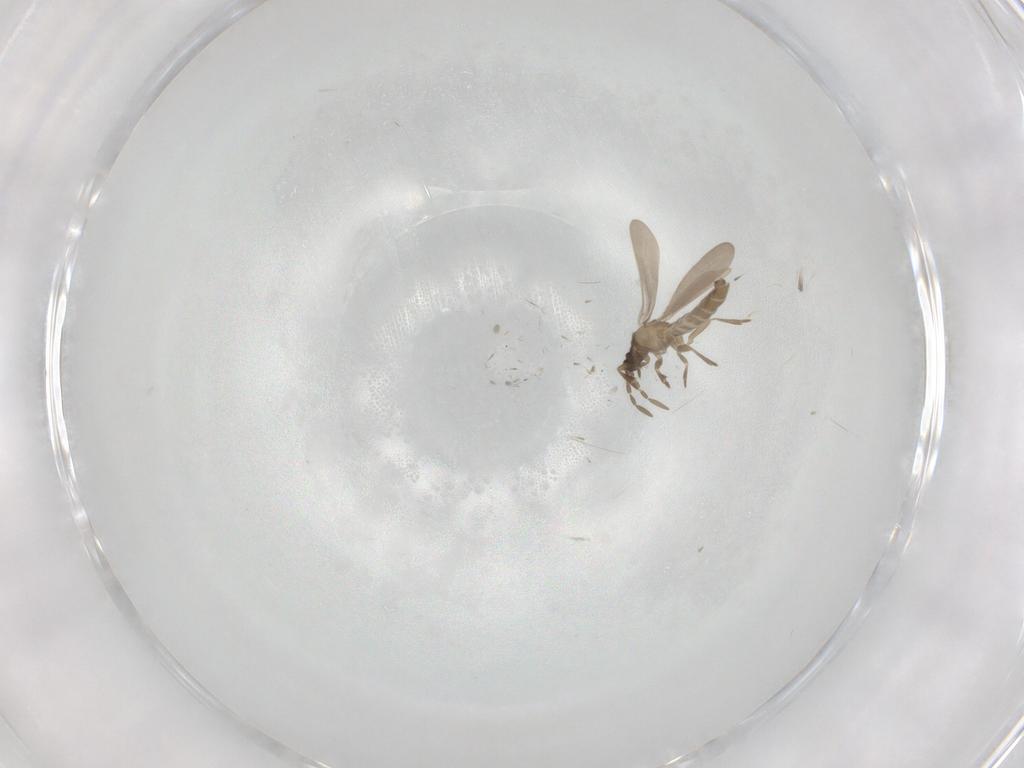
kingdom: Animalia
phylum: Arthropoda
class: Insecta
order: Hemiptera
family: Enicocephalidae
